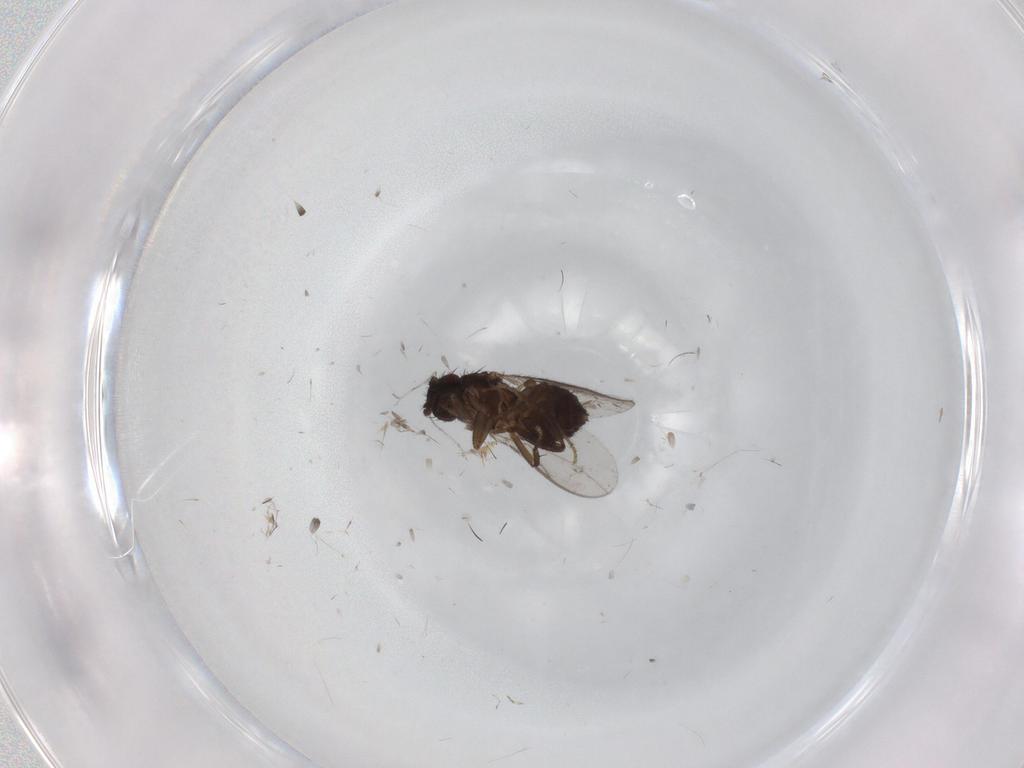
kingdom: Animalia
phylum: Arthropoda
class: Insecta
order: Diptera
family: Sphaeroceridae
